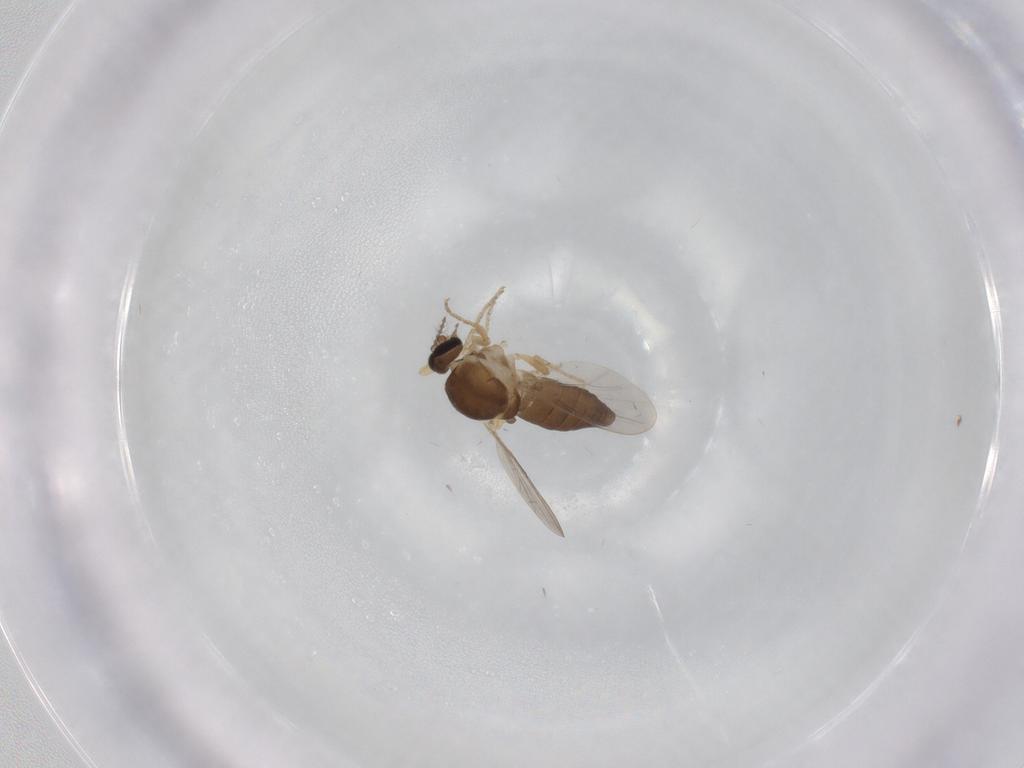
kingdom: Animalia
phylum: Arthropoda
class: Insecta
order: Diptera
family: Ceratopogonidae
